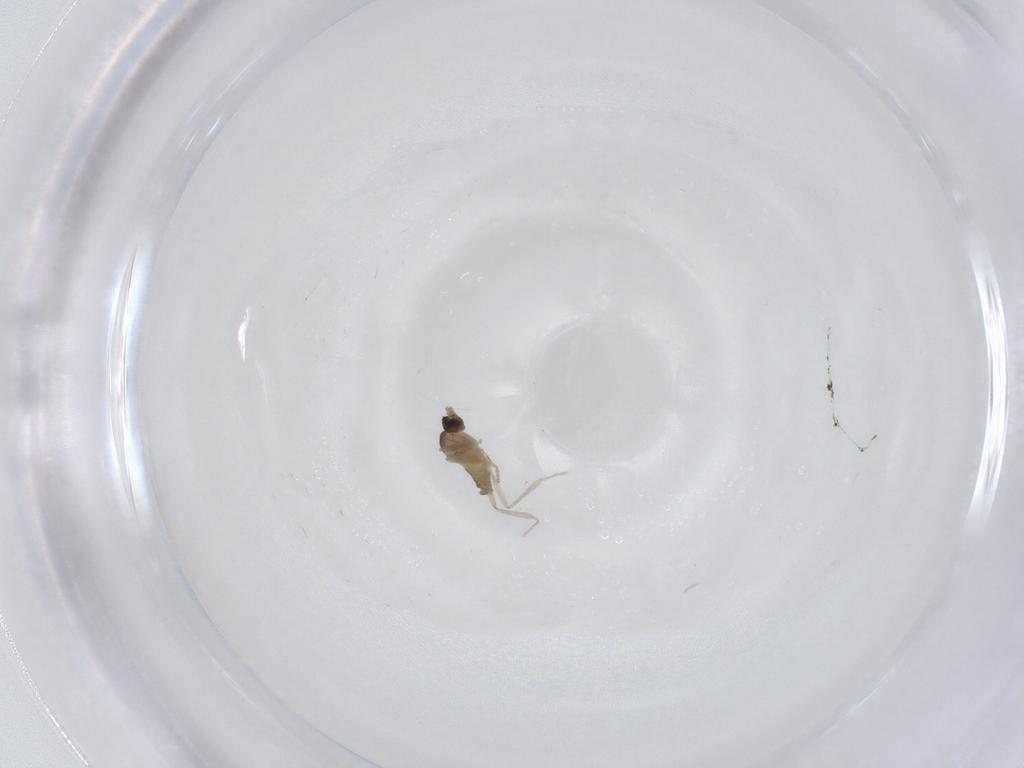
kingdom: Animalia
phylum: Arthropoda
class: Insecta
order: Diptera
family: Cecidomyiidae
